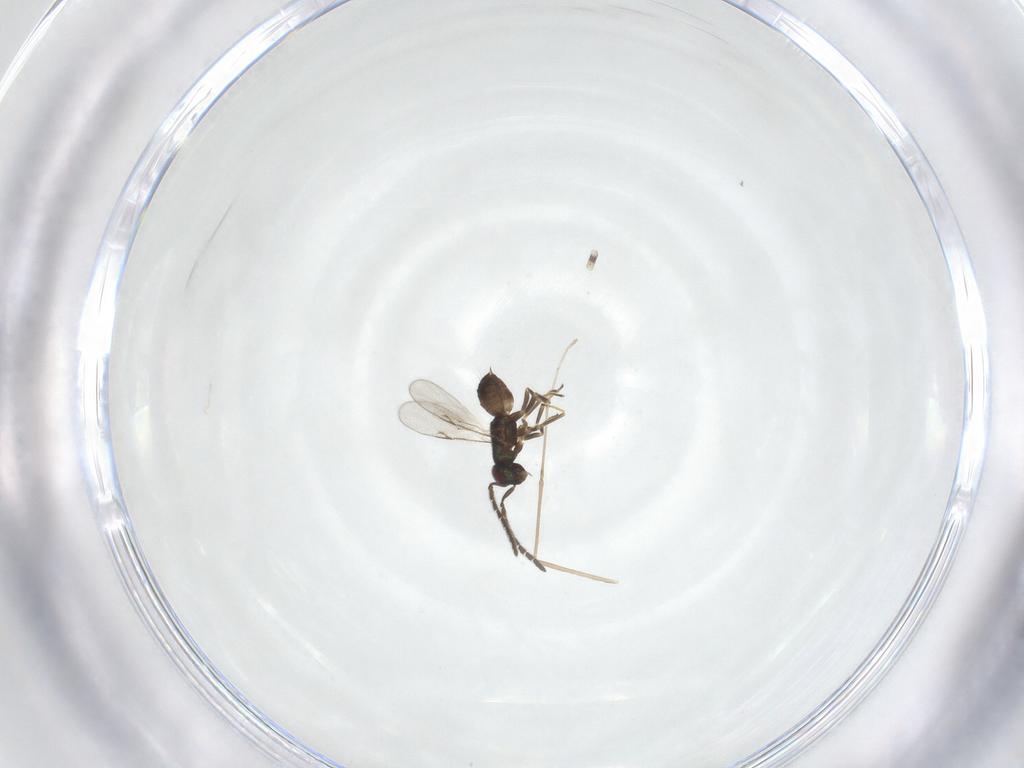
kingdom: Animalia
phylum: Arthropoda
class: Insecta
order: Hymenoptera
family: Encyrtidae
